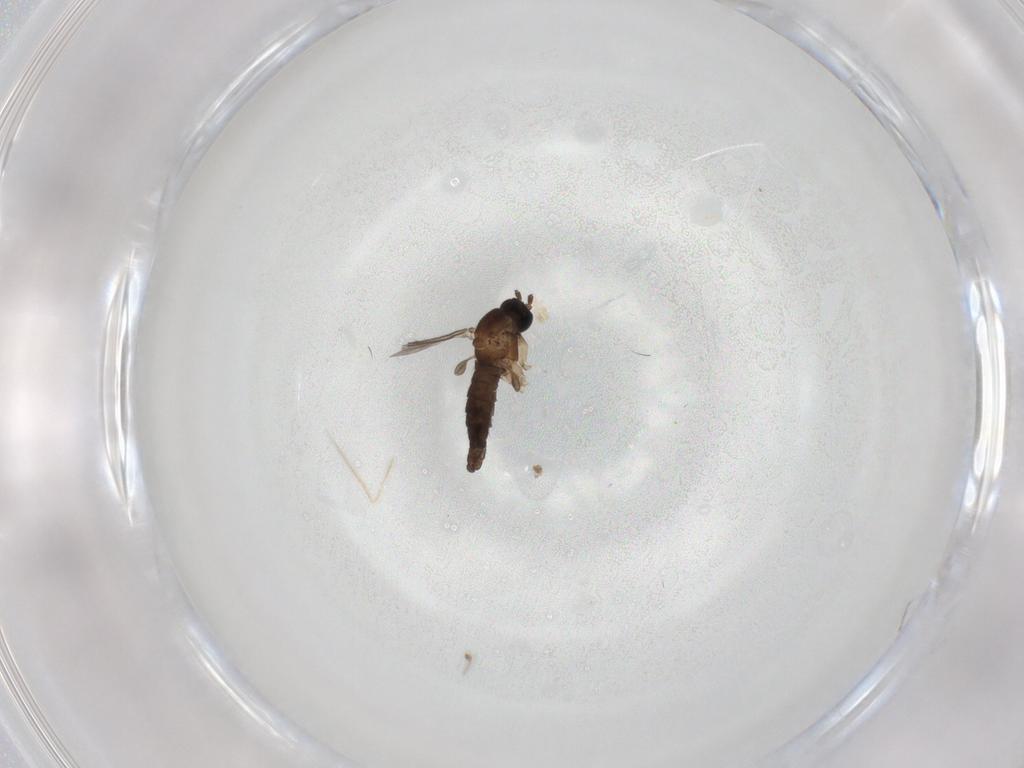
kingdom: Animalia
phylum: Arthropoda
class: Insecta
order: Diptera
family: Sciaridae
